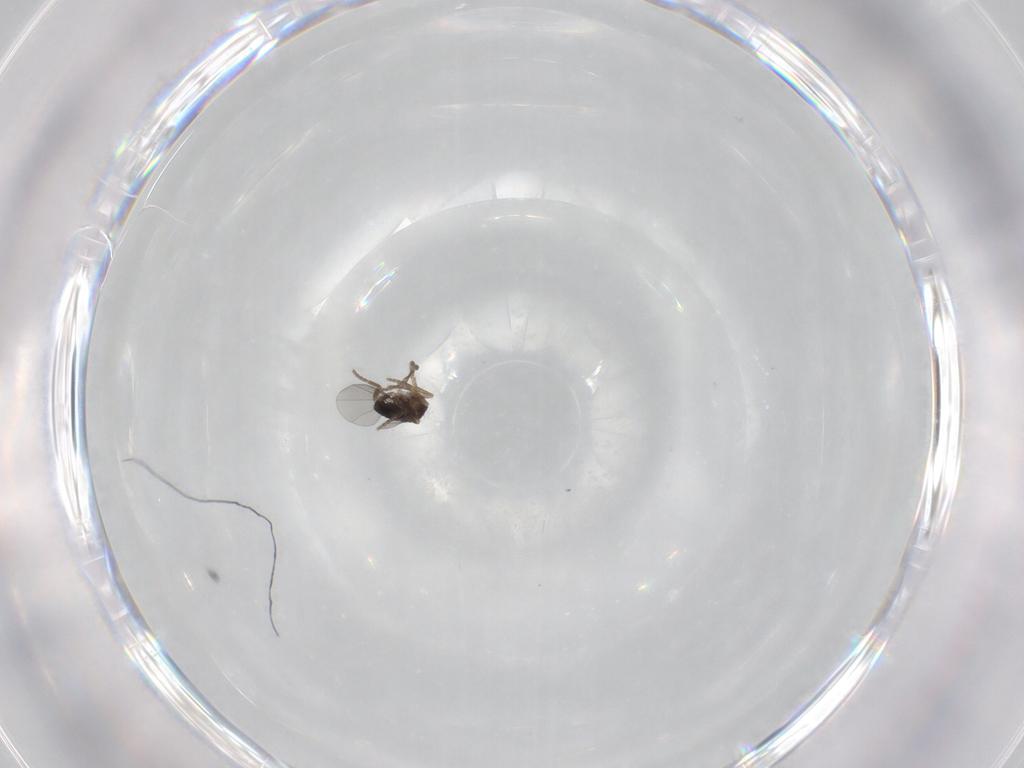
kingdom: Animalia
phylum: Arthropoda
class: Insecta
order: Diptera
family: Phoridae
